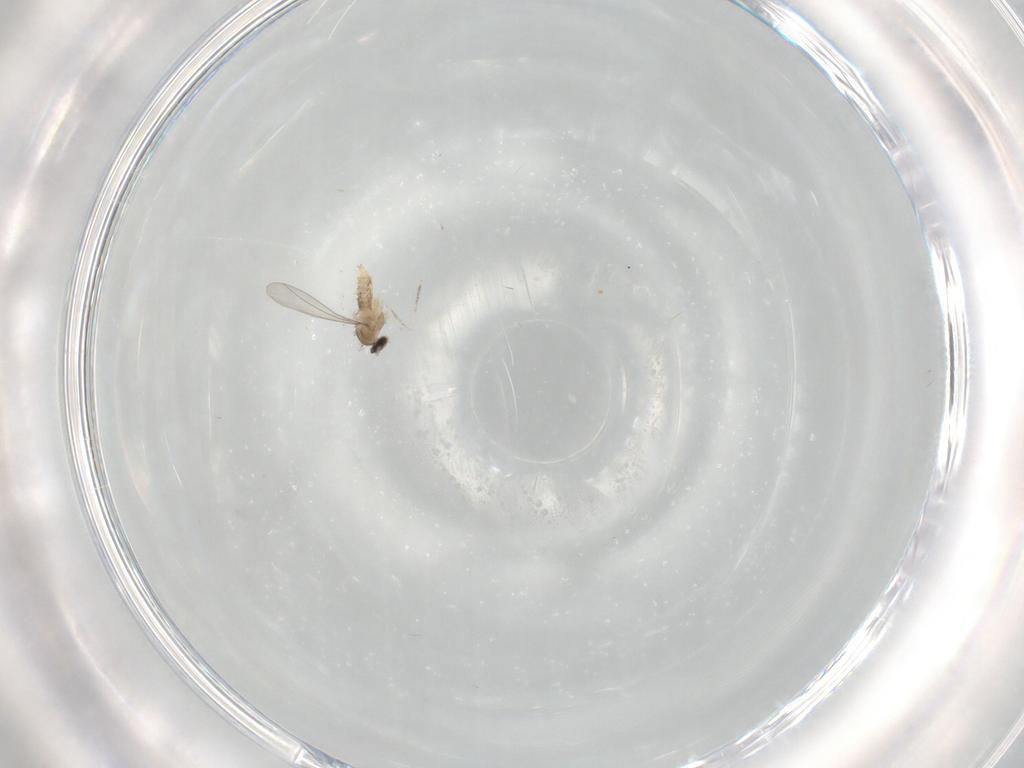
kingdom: Animalia
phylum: Arthropoda
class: Insecta
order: Diptera
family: Cecidomyiidae
